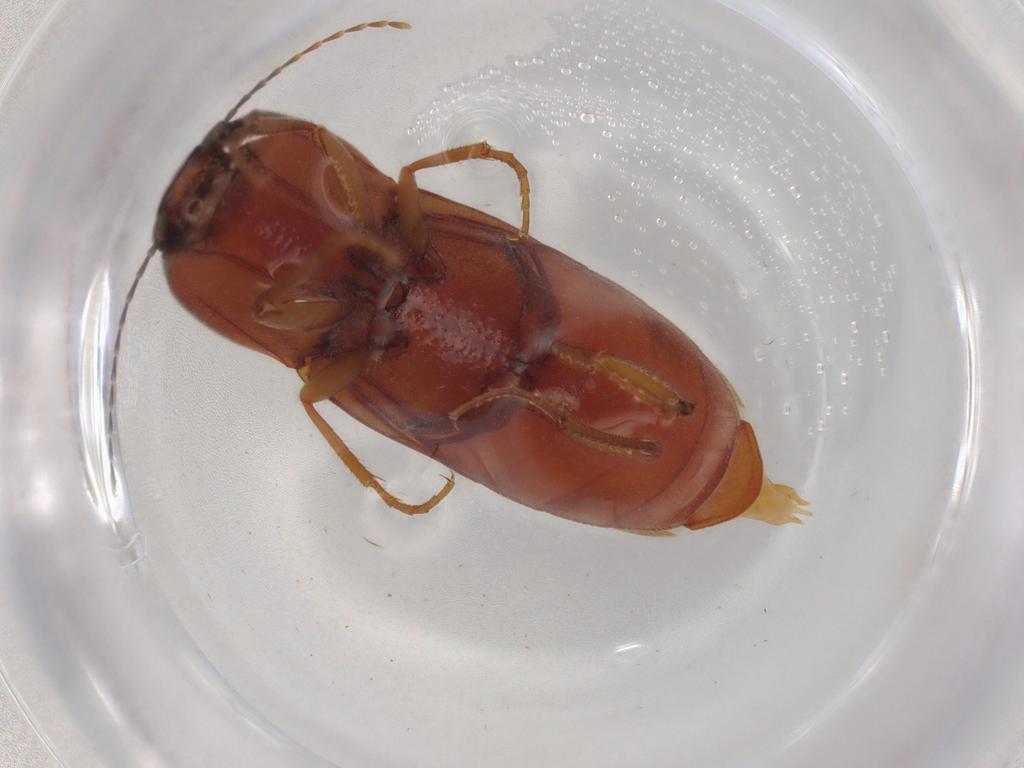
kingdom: Animalia
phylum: Arthropoda
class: Insecta
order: Coleoptera
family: Elateridae
